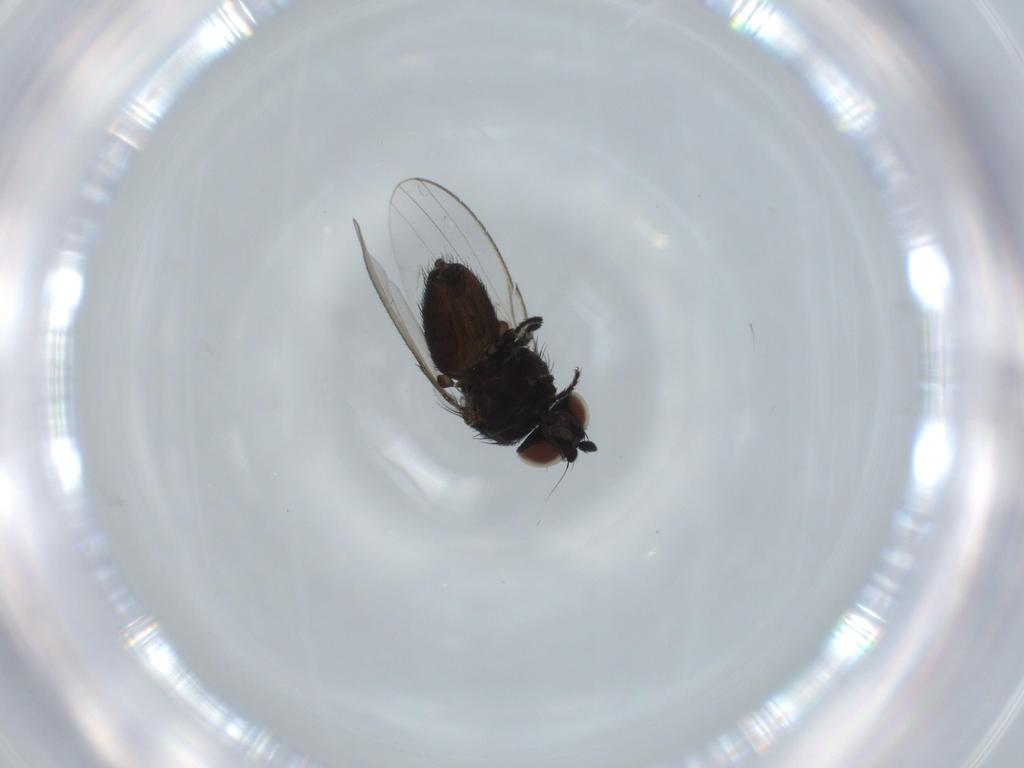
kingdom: Animalia
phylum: Arthropoda
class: Insecta
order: Diptera
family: Milichiidae
